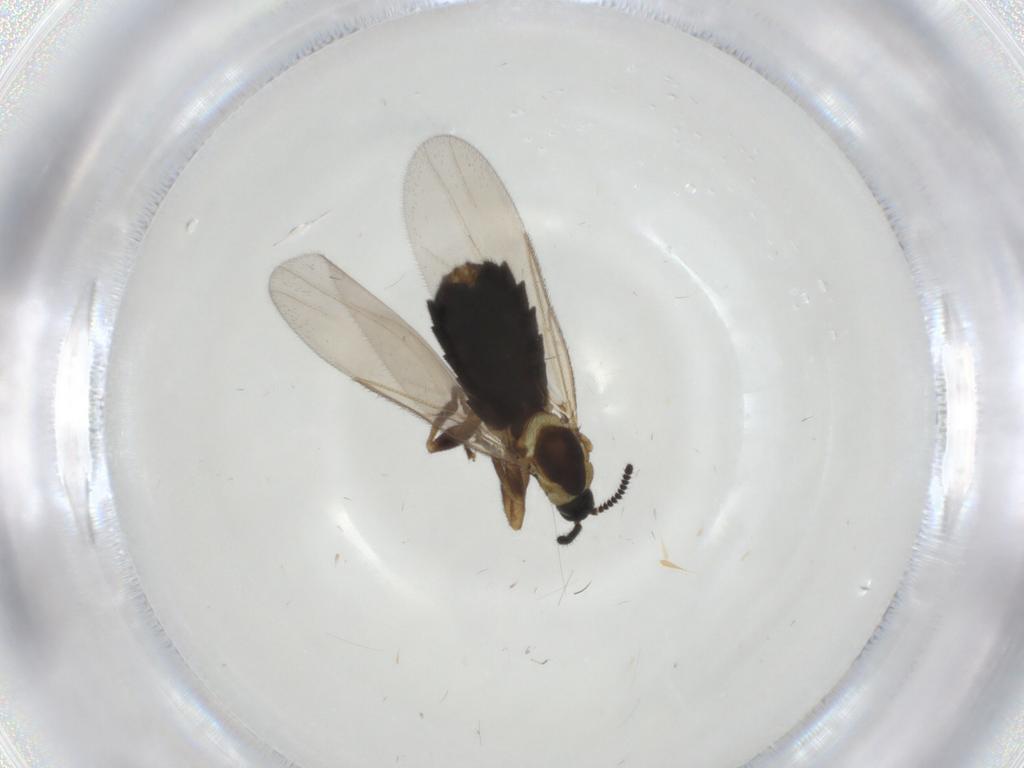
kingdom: Animalia
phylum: Arthropoda
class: Insecta
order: Diptera
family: Scatopsidae
